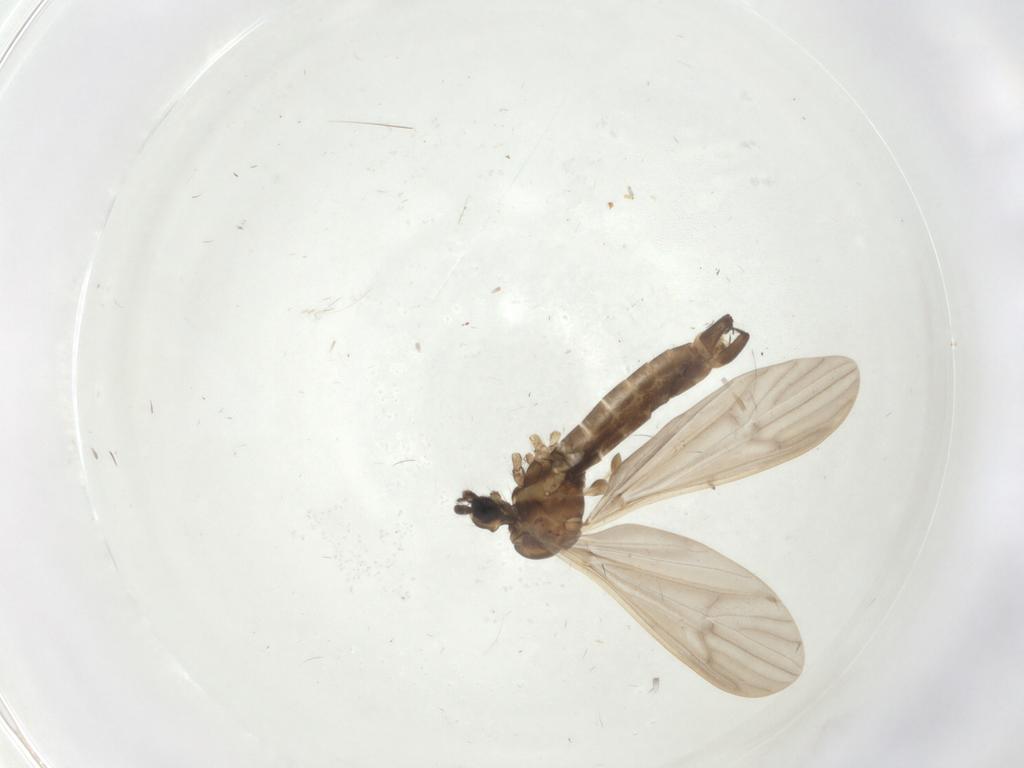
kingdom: Animalia
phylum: Arthropoda
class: Insecta
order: Diptera
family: Limoniidae
